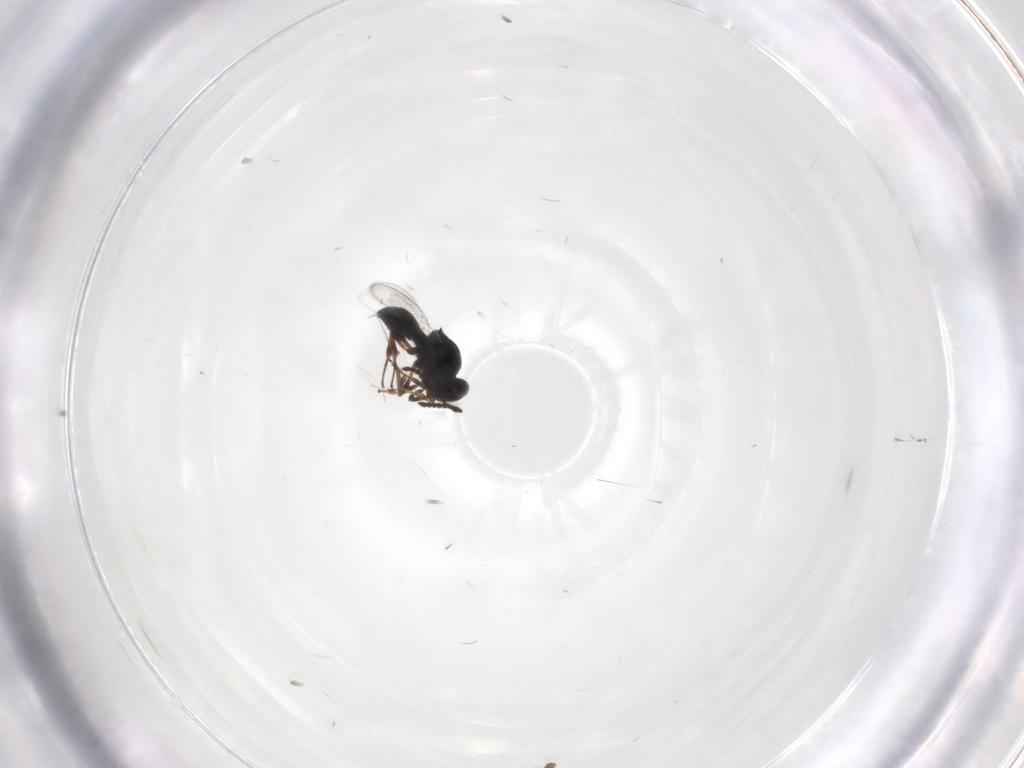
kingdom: Animalia
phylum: Arthropoda
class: Insecta
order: Hymenoptera
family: Platygastridae
